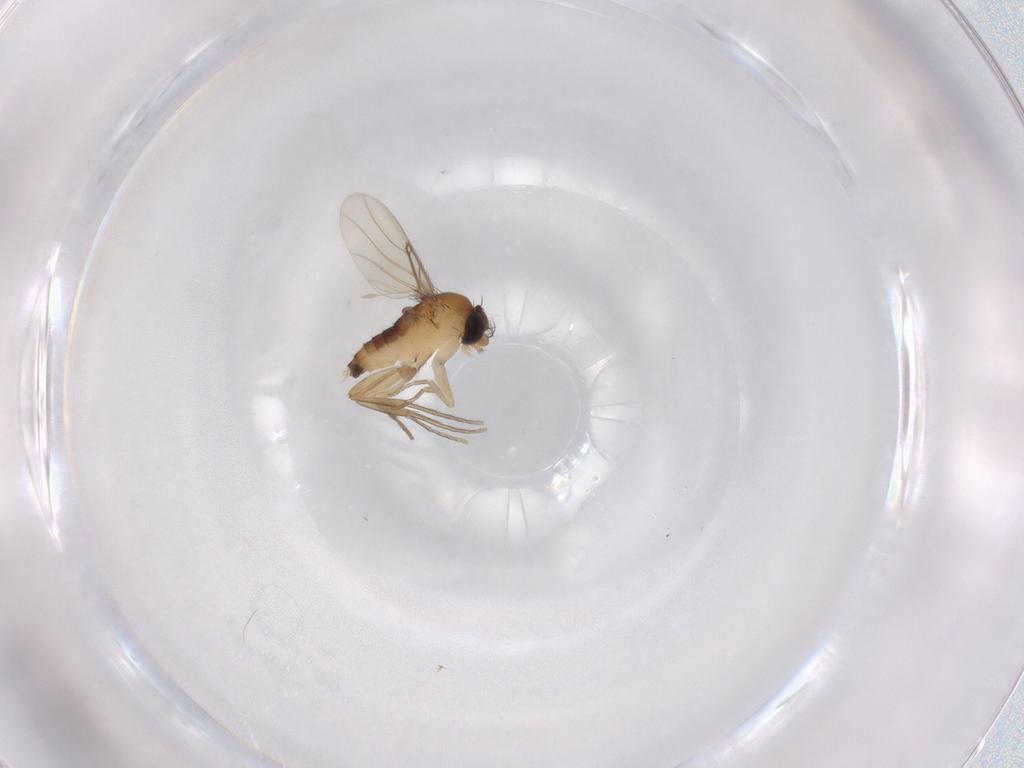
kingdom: Animalia
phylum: Arthropoda
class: Insecta
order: Diptera
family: Phoridae
